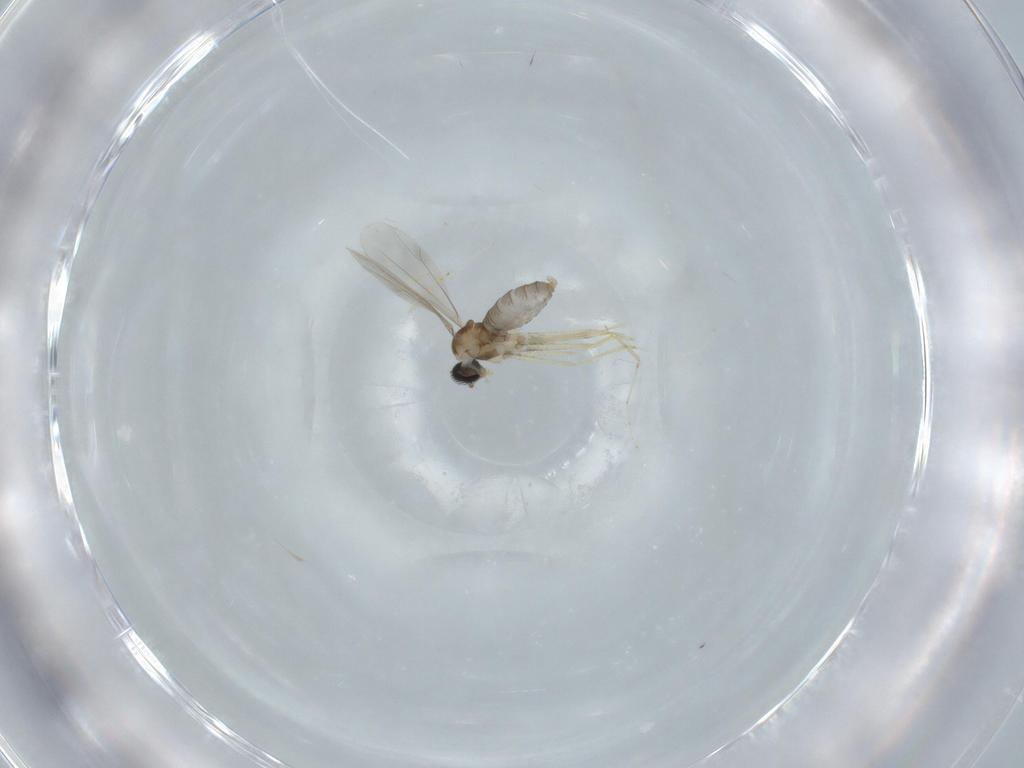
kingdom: Animalia
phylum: Arthropoda
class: Insecta
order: Diptera
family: Cecidomyiidae
